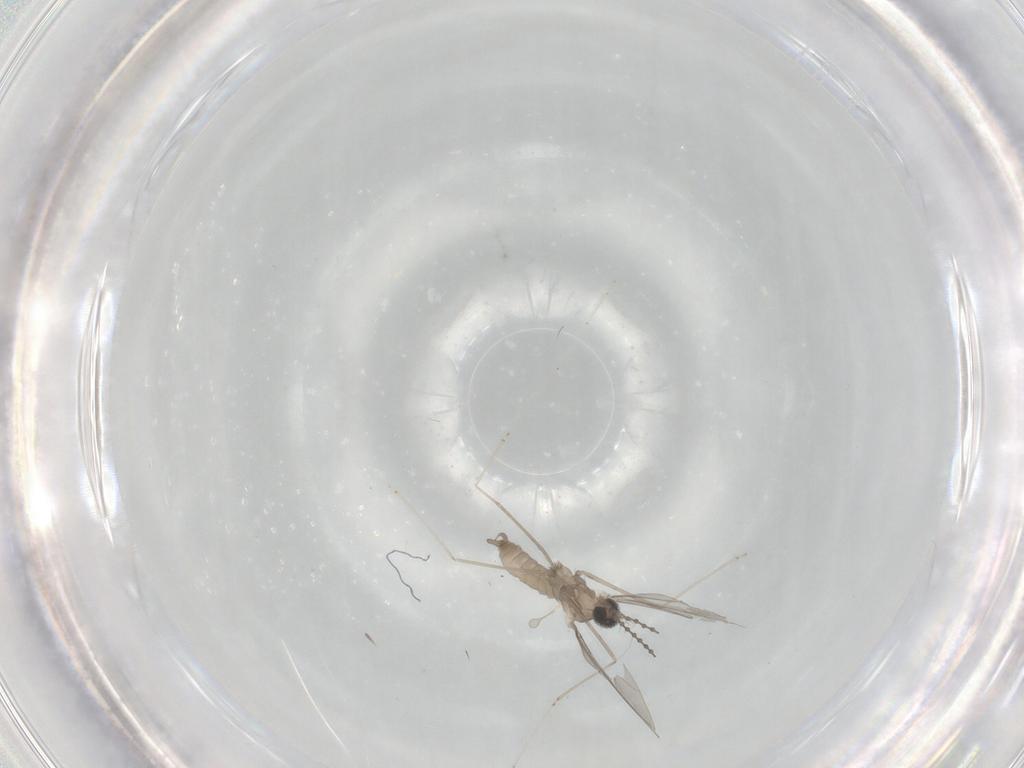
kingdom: Animalia
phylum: Arthropoda
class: Insecta
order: Diptera
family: Cecidomyiidae
